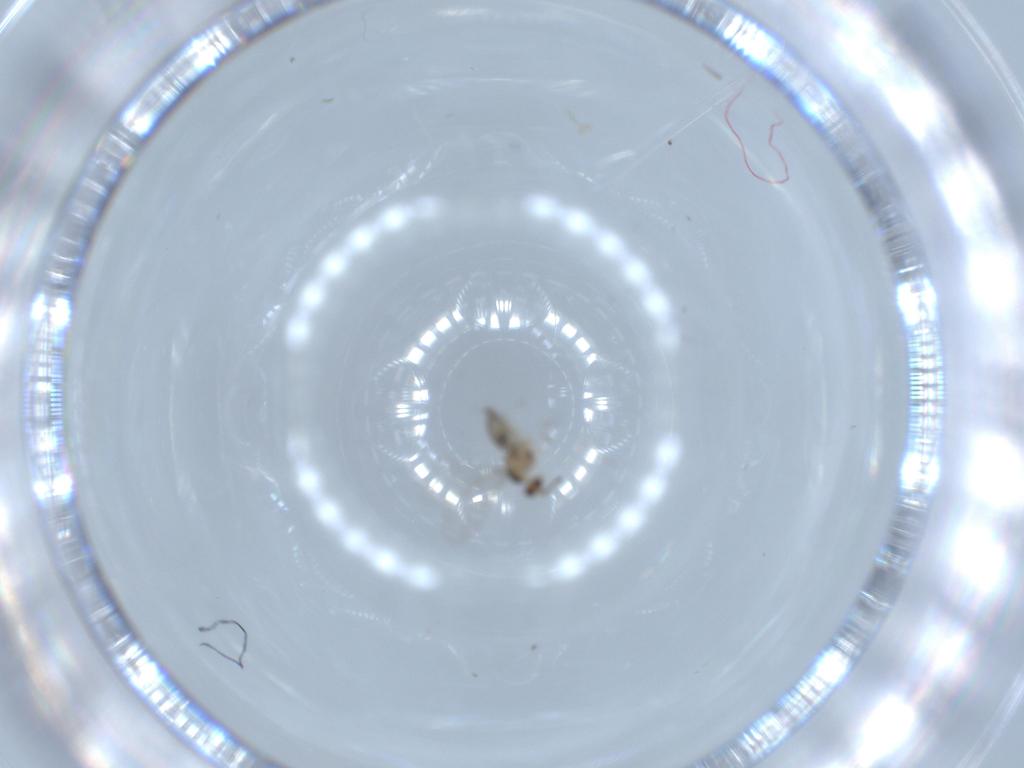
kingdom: Animalia
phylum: Arthropoda
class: Insecta
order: Diptera
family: Cecidomyiidae
